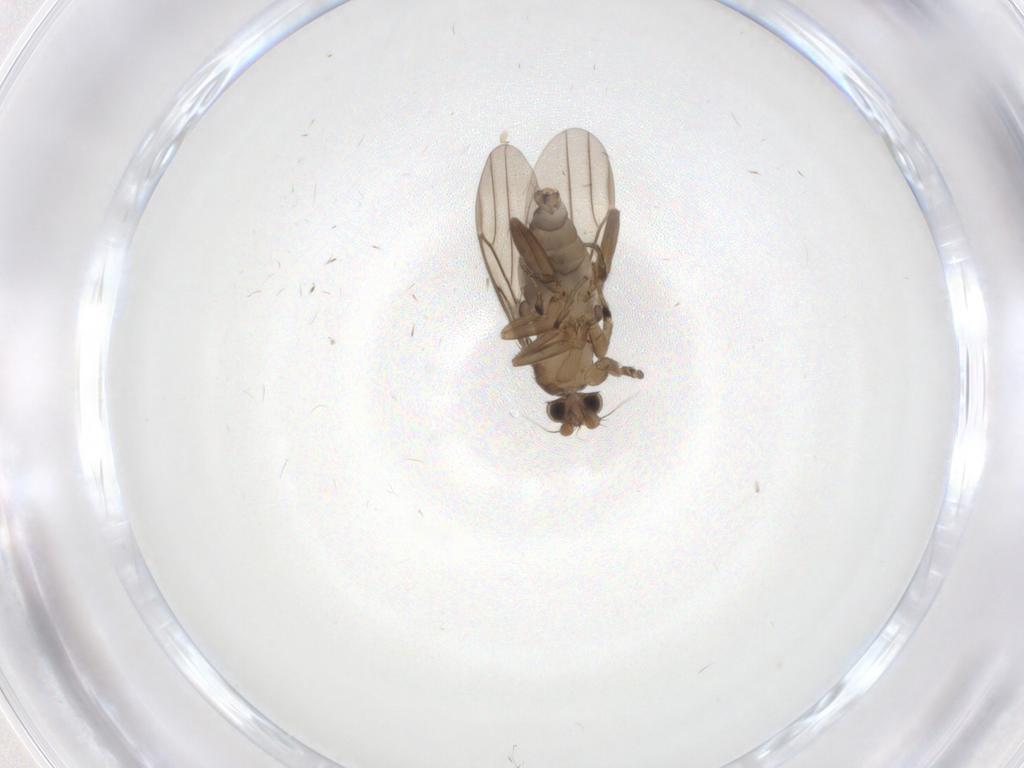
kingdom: Animalia
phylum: Arthropoda
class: Insecta
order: Diptera
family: Chironomidae
